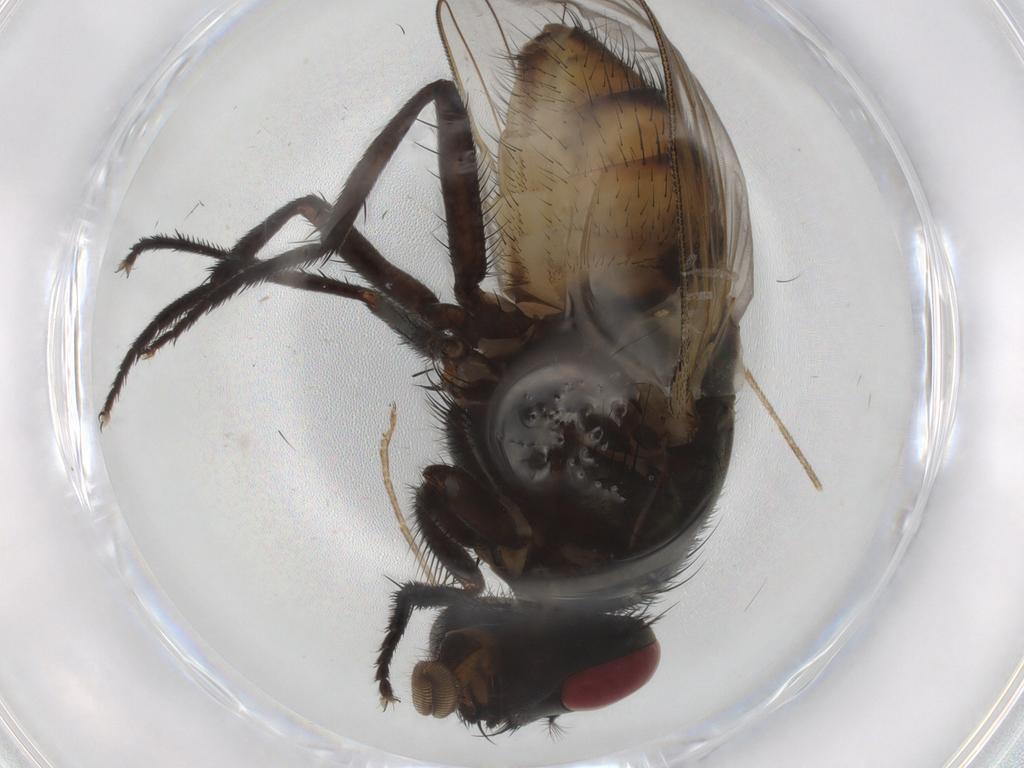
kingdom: Animalia
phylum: Arthropoda
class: Insecta
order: Diptera
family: Muscidae
